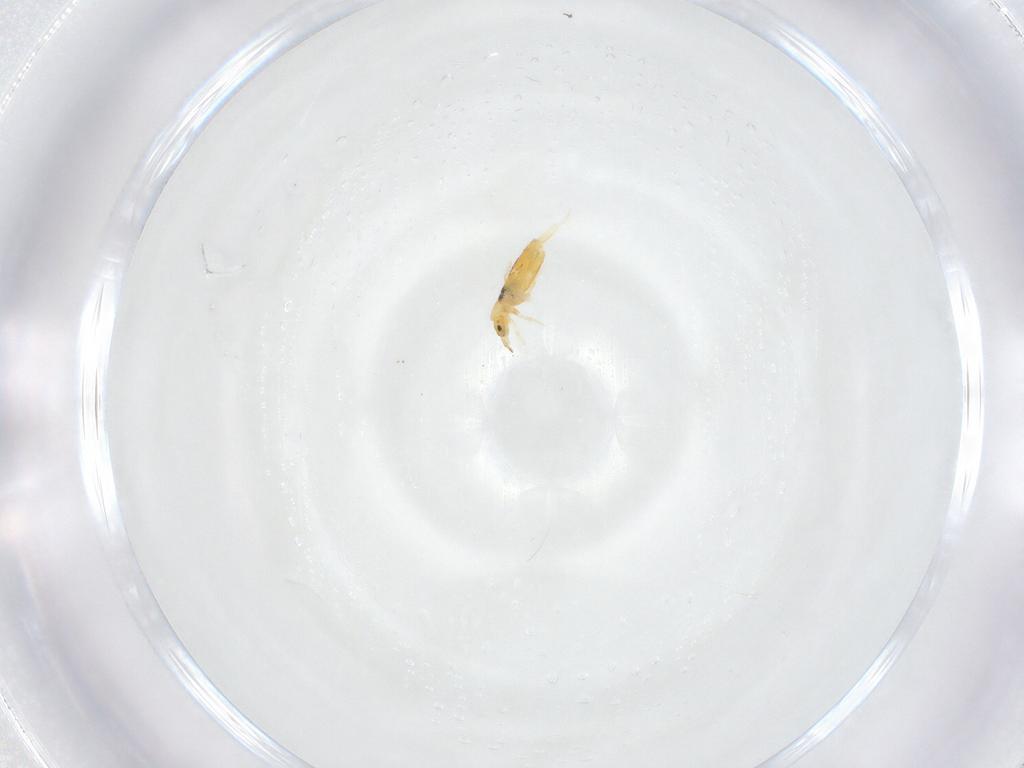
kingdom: Animalia
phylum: Arthropoda
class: Collembola
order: Entomobryomorpha
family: Entomobryidae
